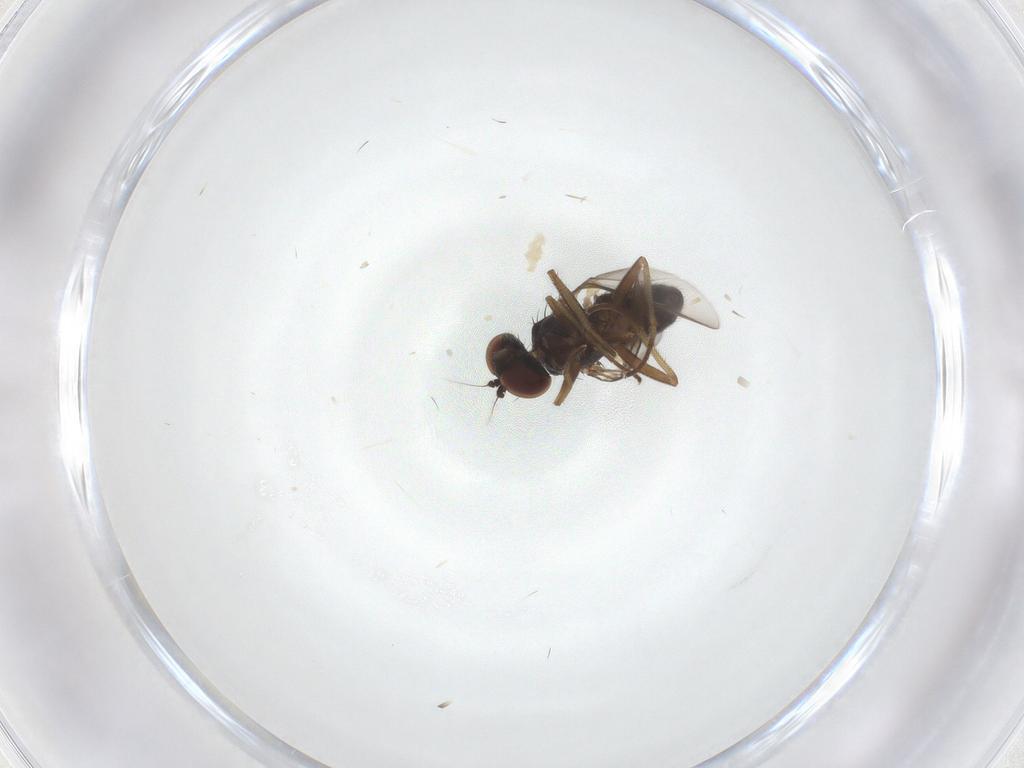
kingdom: Animalia
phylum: Arthropoda
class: Insecta
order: Diptera
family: Dolichopodidae
